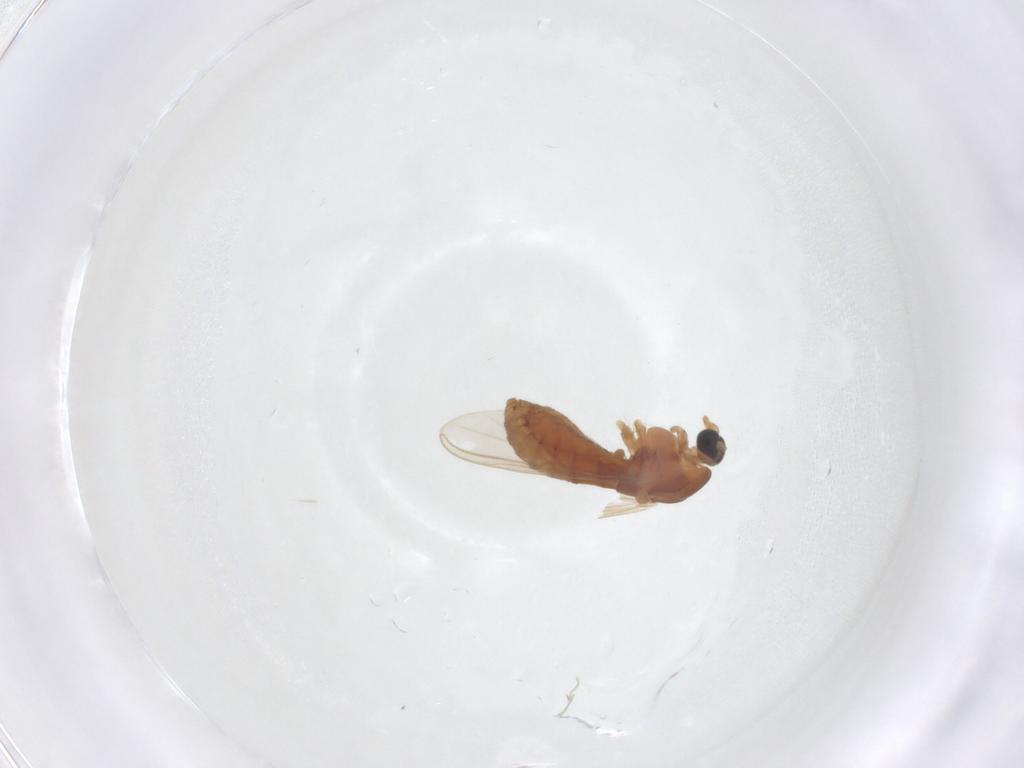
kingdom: Animalia
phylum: Arthropoda
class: Insecta
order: Diptera
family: Chironomidae
